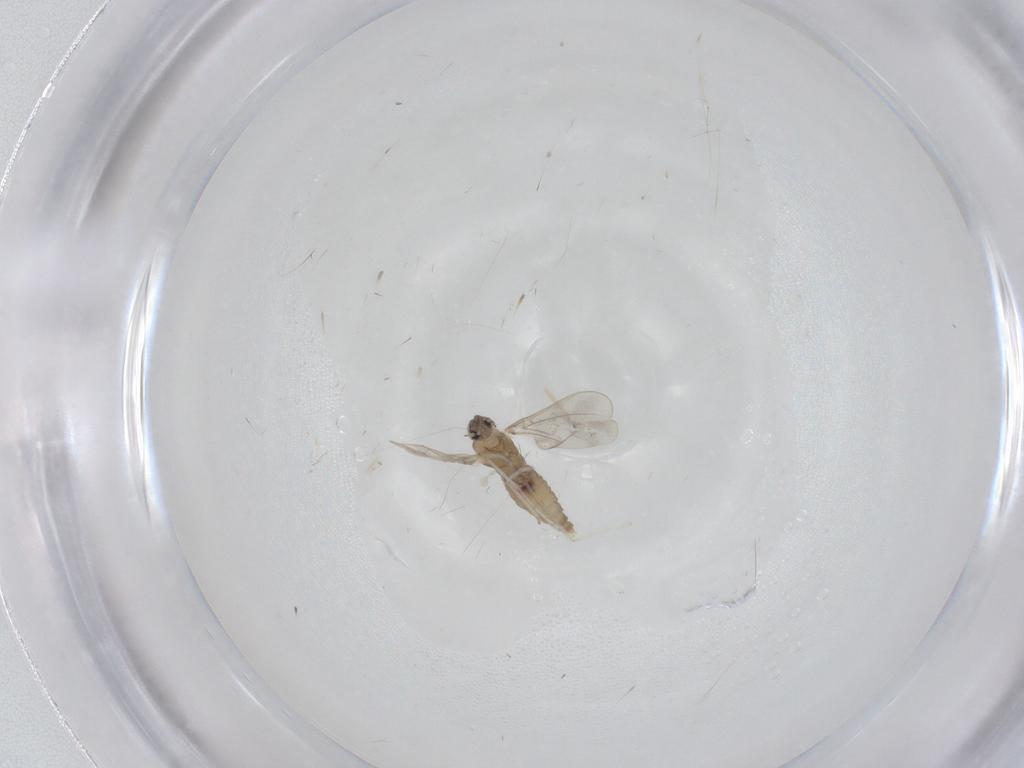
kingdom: Animalia
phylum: Arthropoda
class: Insecta
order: Diptera
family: Cecidomyiidae
